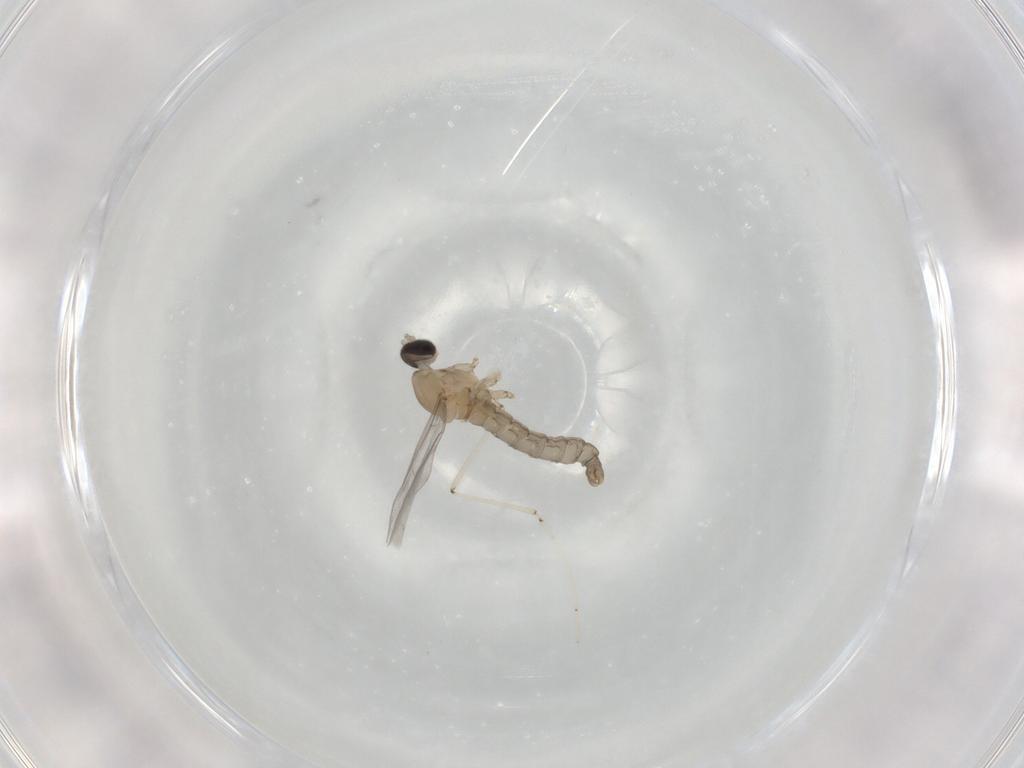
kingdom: Animalia
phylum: Arthropoda
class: Insecta
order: Diptera
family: Cecidomyiidae
